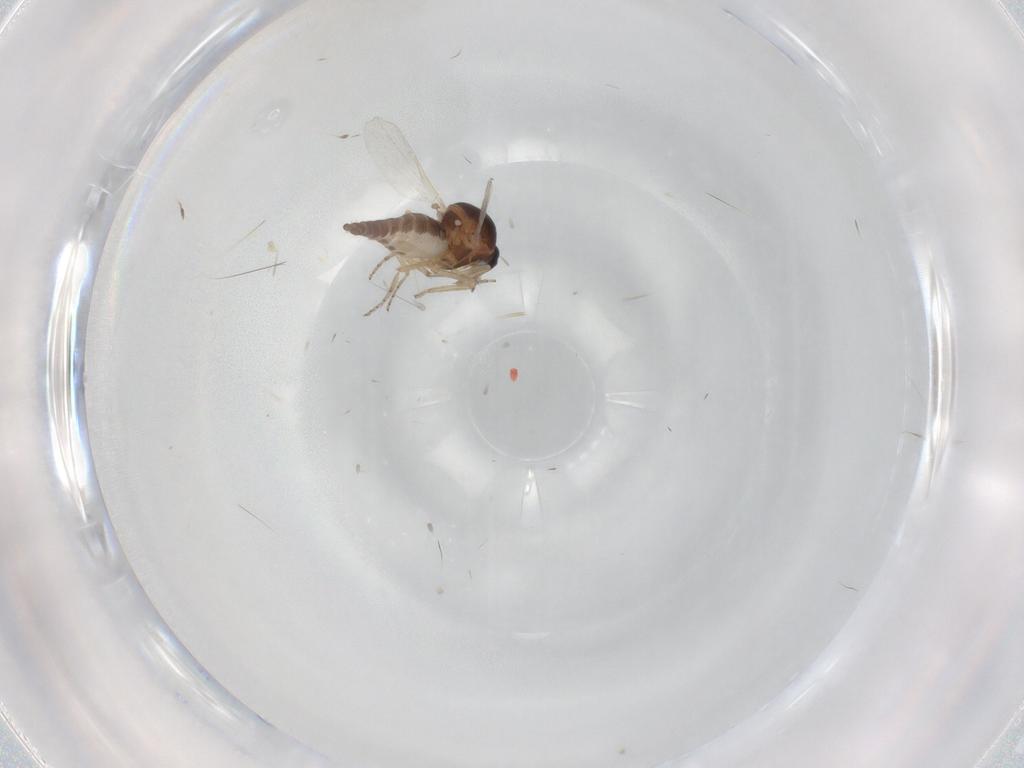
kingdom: Animalia
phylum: Arthropoda
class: Insecta
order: Diptera
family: Ceratopogonidae
